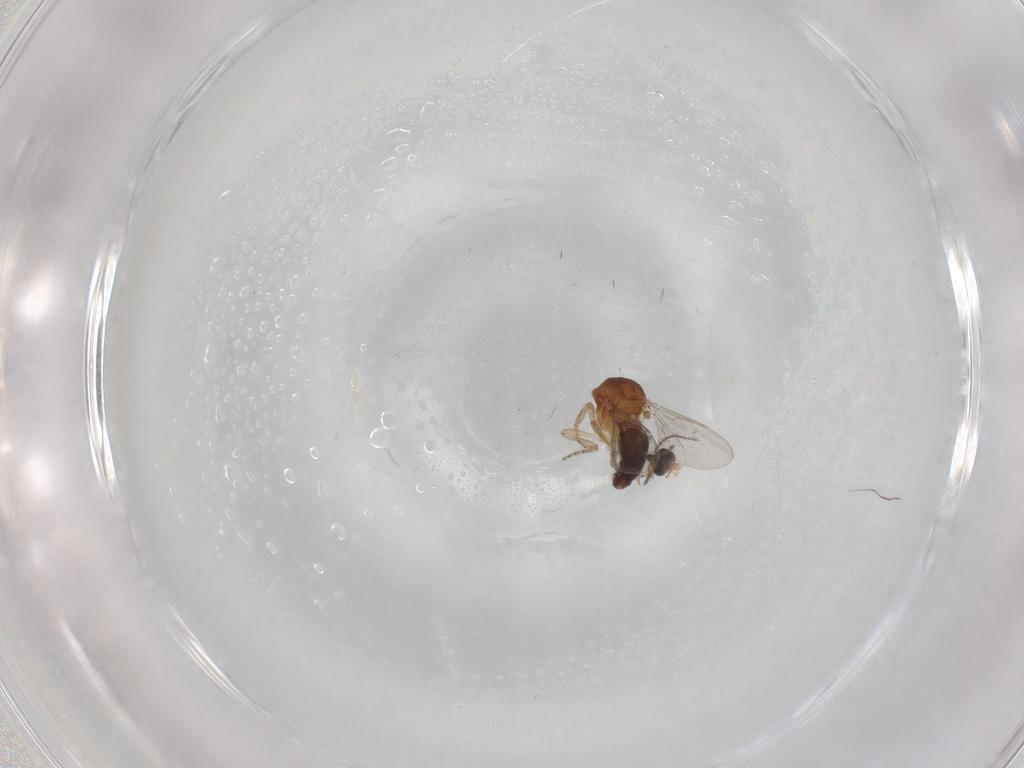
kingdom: Animalia
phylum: Arthropoda
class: Insecta
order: Diptera
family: Ceratopogonidae
